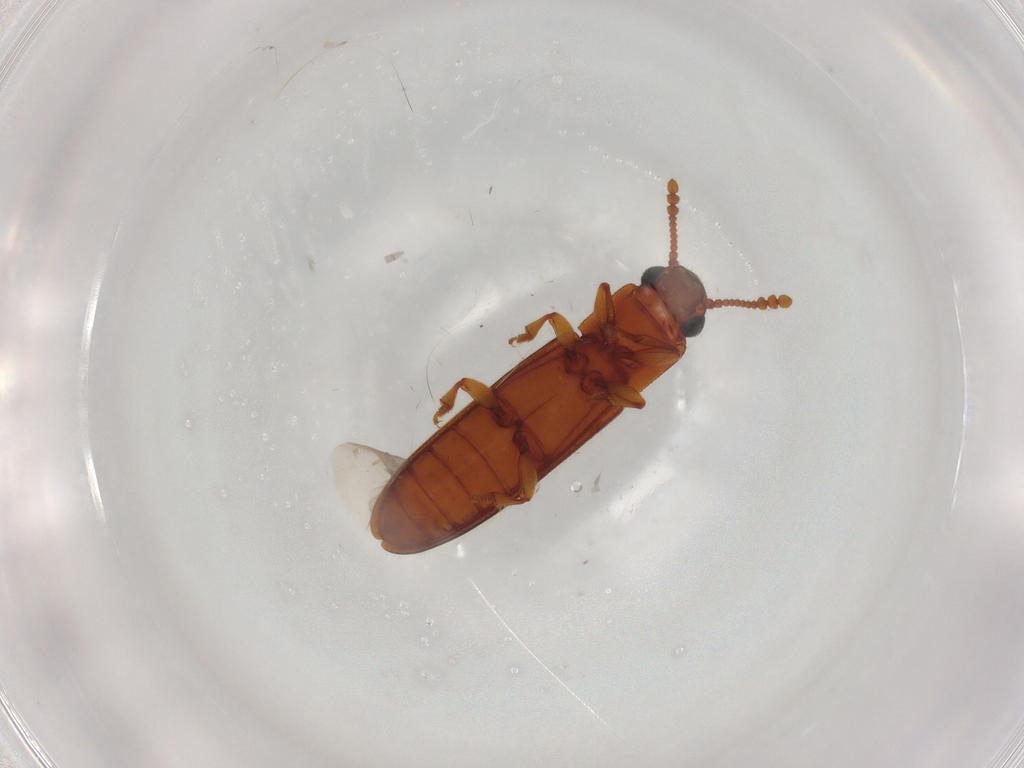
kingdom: Animalia
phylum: Arthropoda
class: Insecta
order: Coleoptera
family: Erotylidae
